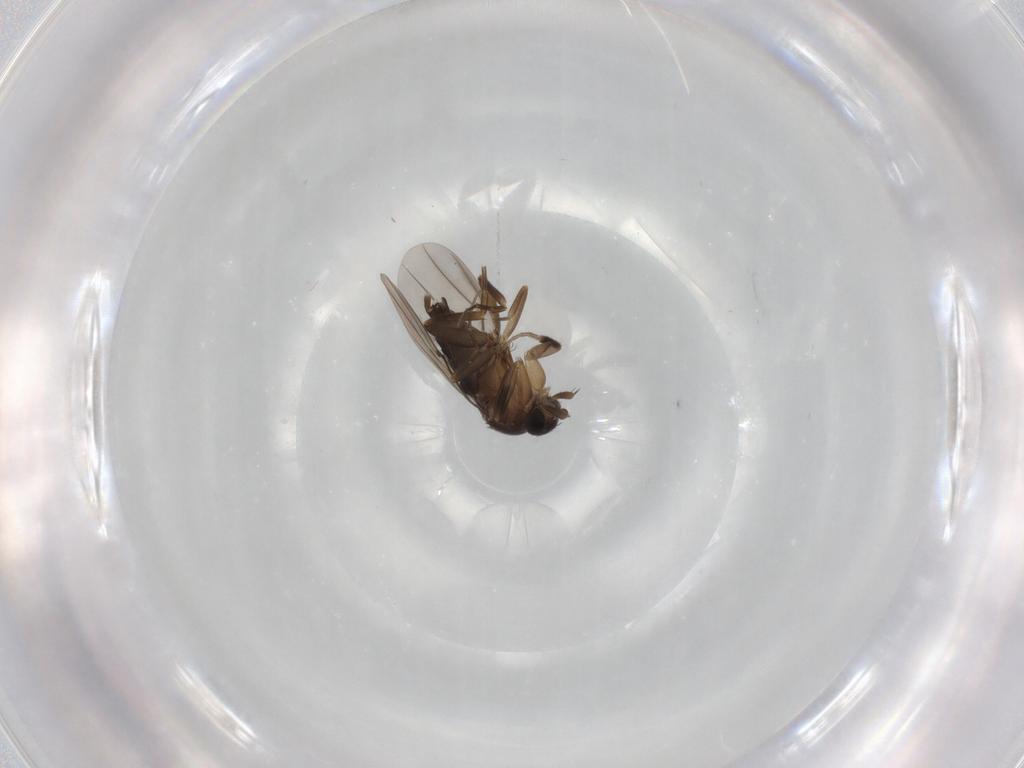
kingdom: Animalia
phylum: Arthropoda
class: Insecta
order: Diptera
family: Phoridae
